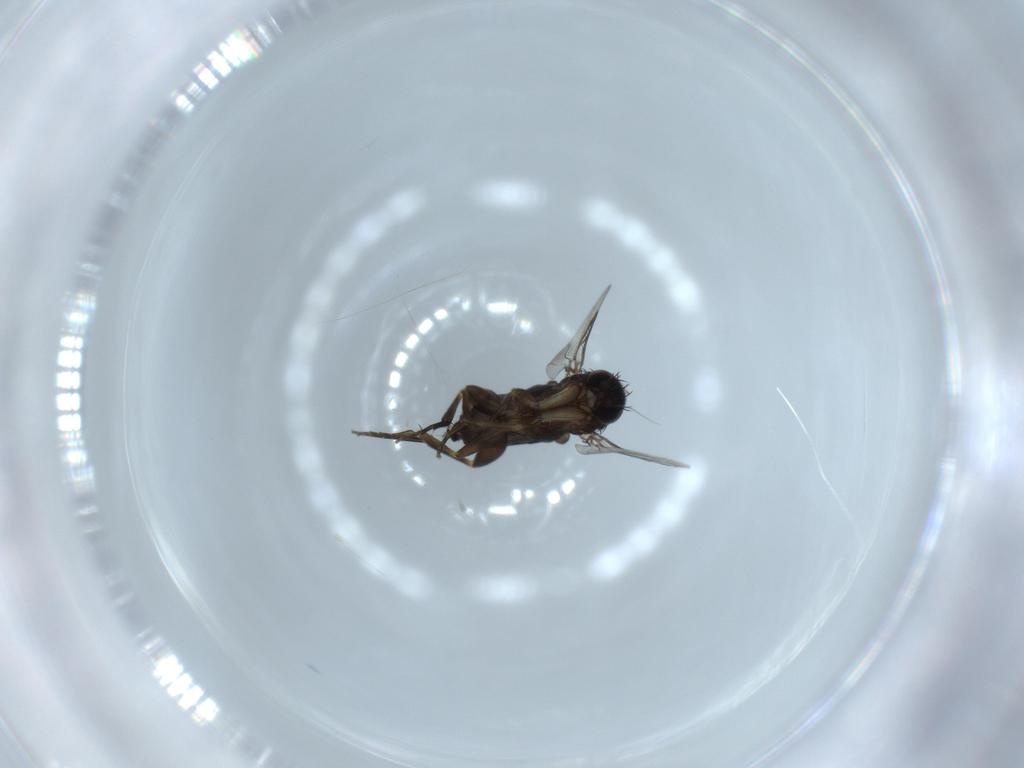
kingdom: Animalia
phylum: Arthropoda
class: Insecta
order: Diptera
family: Phoridae
